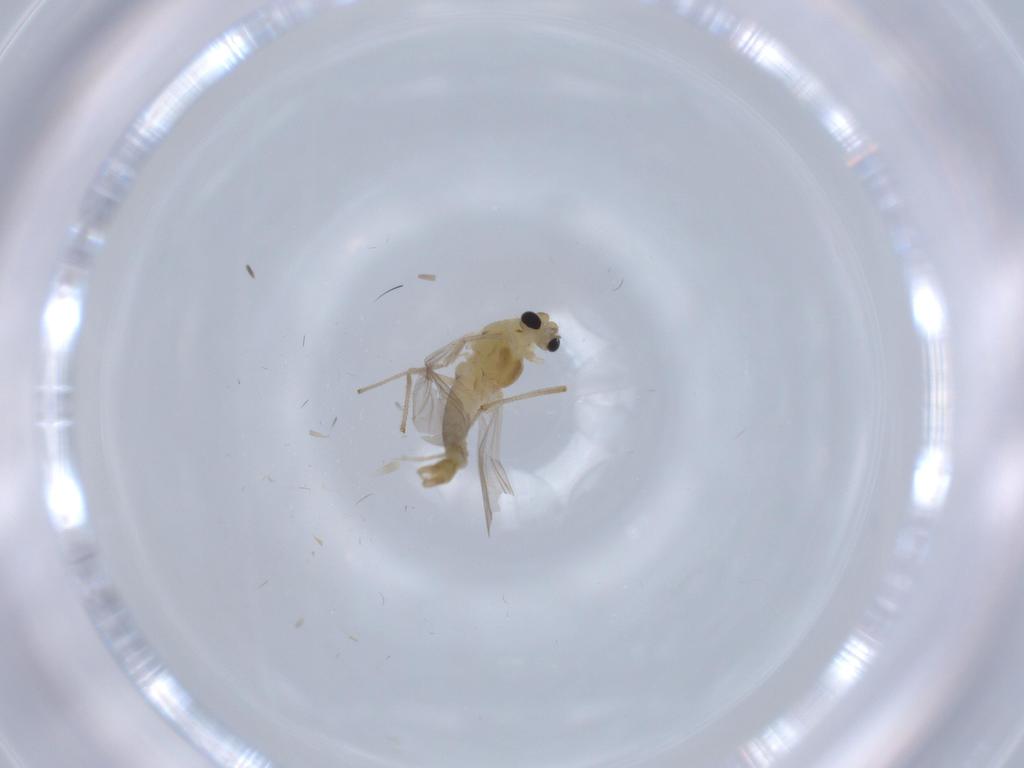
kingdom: Animalia
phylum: Arthropoda
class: Insecta
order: Diptera
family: Chironomidae
